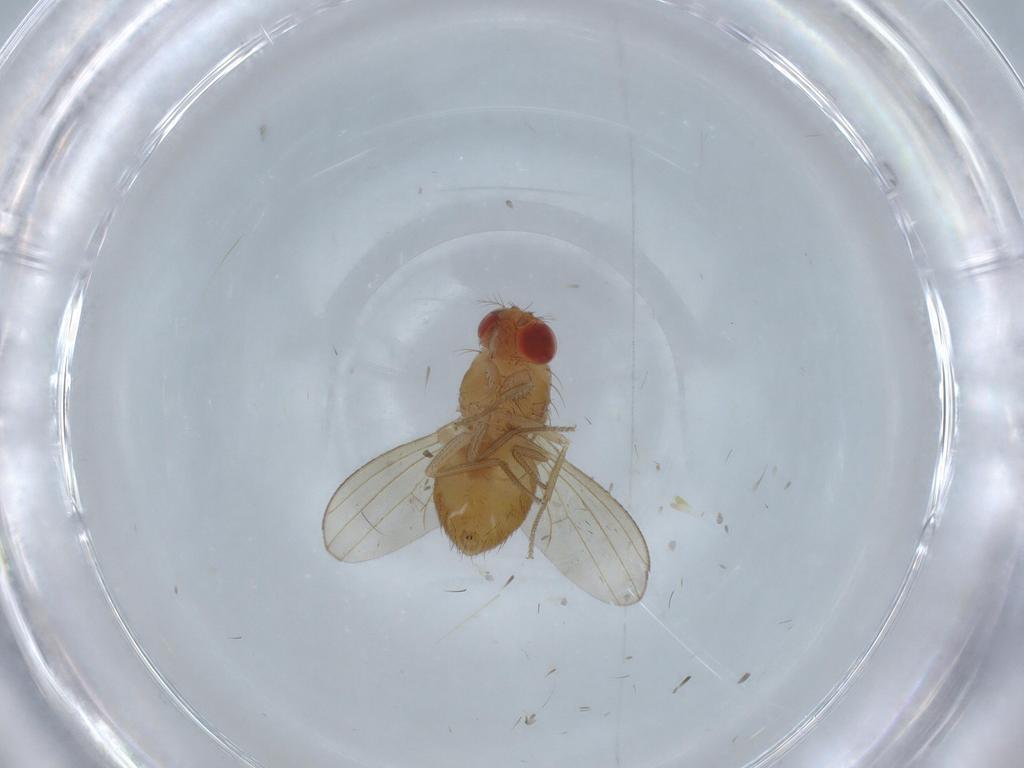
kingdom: Animalia
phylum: Arthropoda
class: Insecta
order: Diptera
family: Drosophilidae
